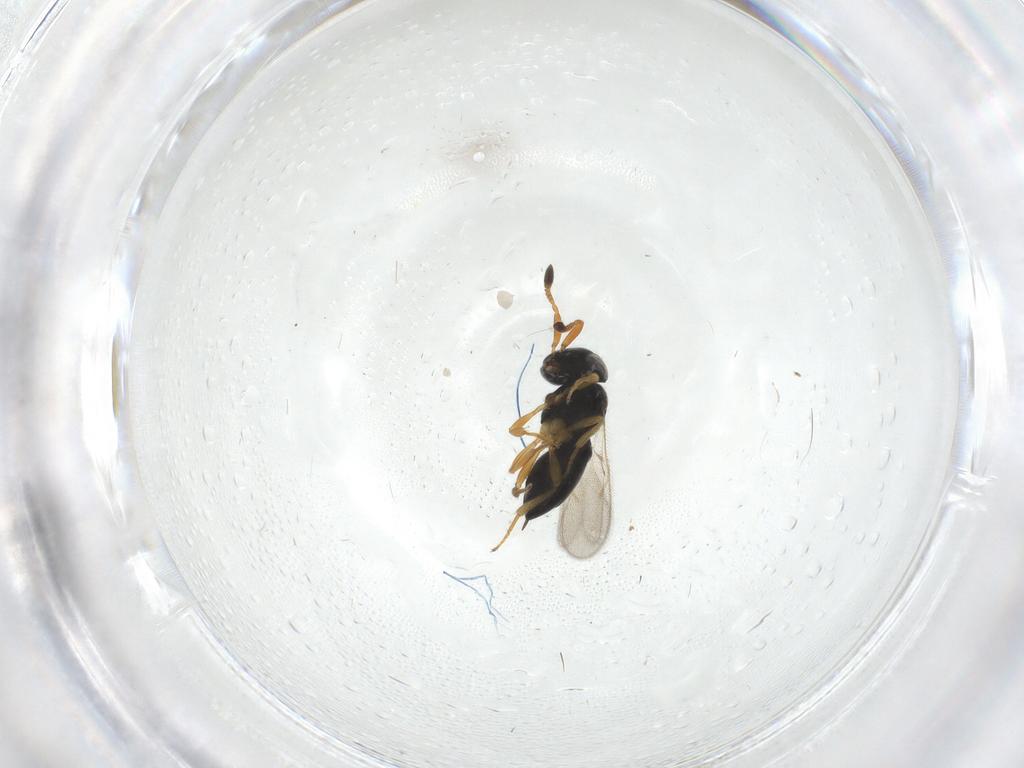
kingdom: Animalia
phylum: Arthropoda
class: Insecta
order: Hymenoptera
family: Scelionidae
